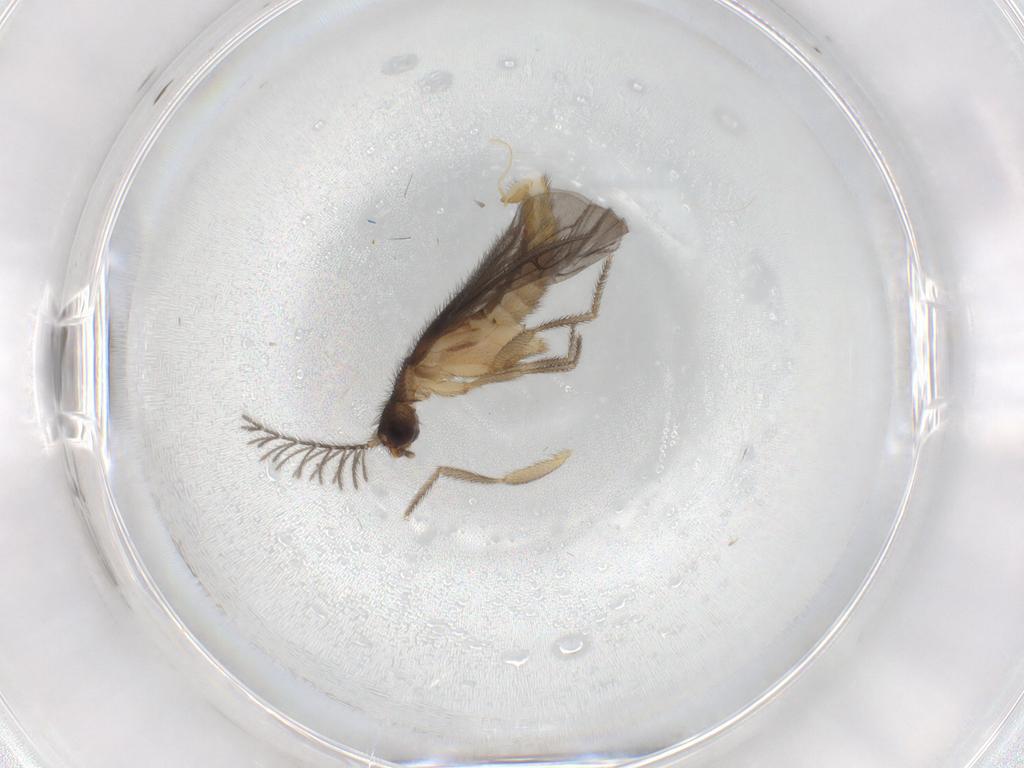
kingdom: Animalia
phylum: Arthropoda
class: Insecta
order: Coleoptera
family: Phengodidae
